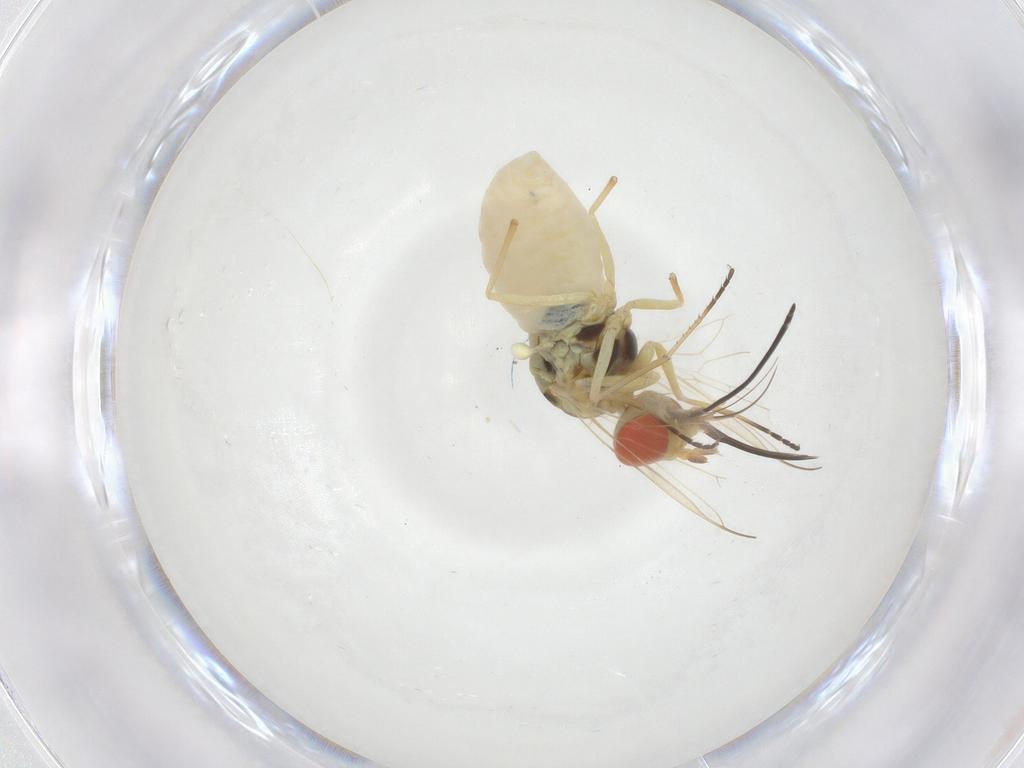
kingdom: Animalia
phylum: Arthropoda
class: Insecta
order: Diptera
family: Bombyliidae
